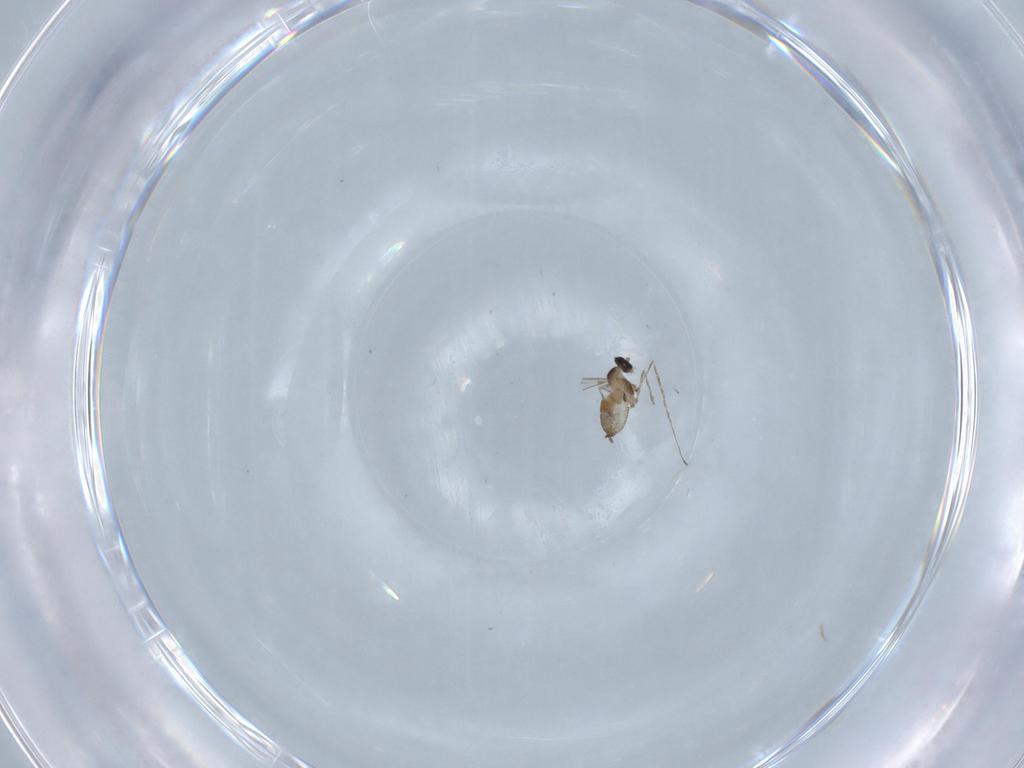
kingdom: Animalia
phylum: Arthropoda
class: Insecta
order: Diptera
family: Cecidomyiidae
